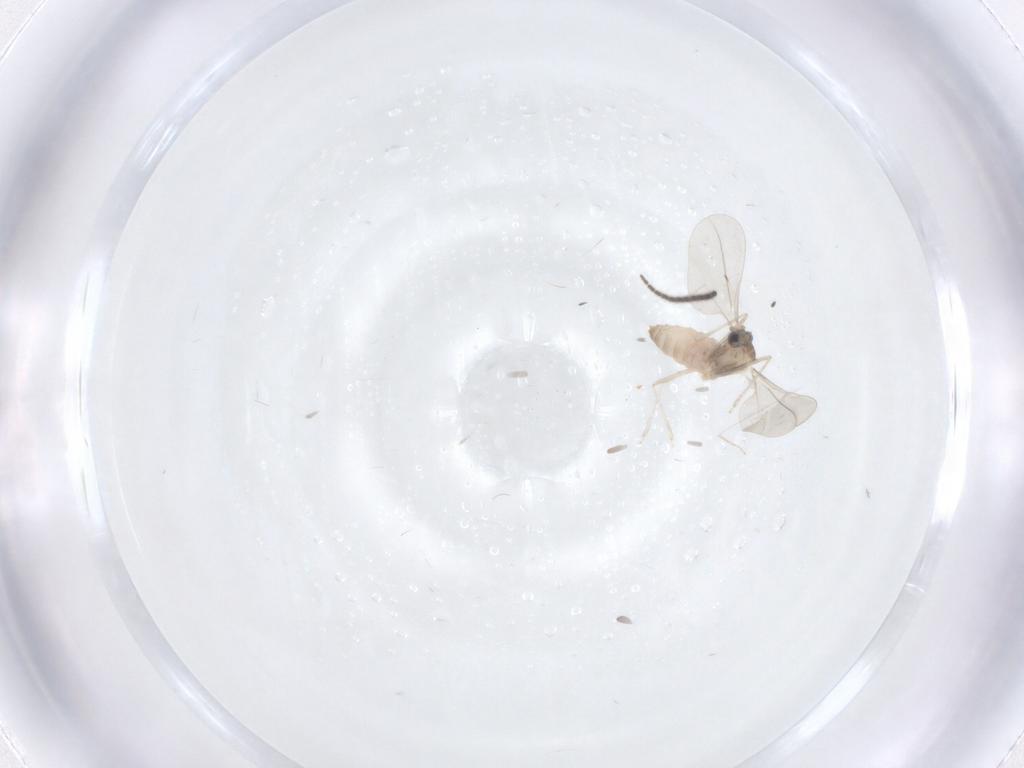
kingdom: Animalia
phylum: Arthropoda
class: Insecta
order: Diptera
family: Sciaridae
